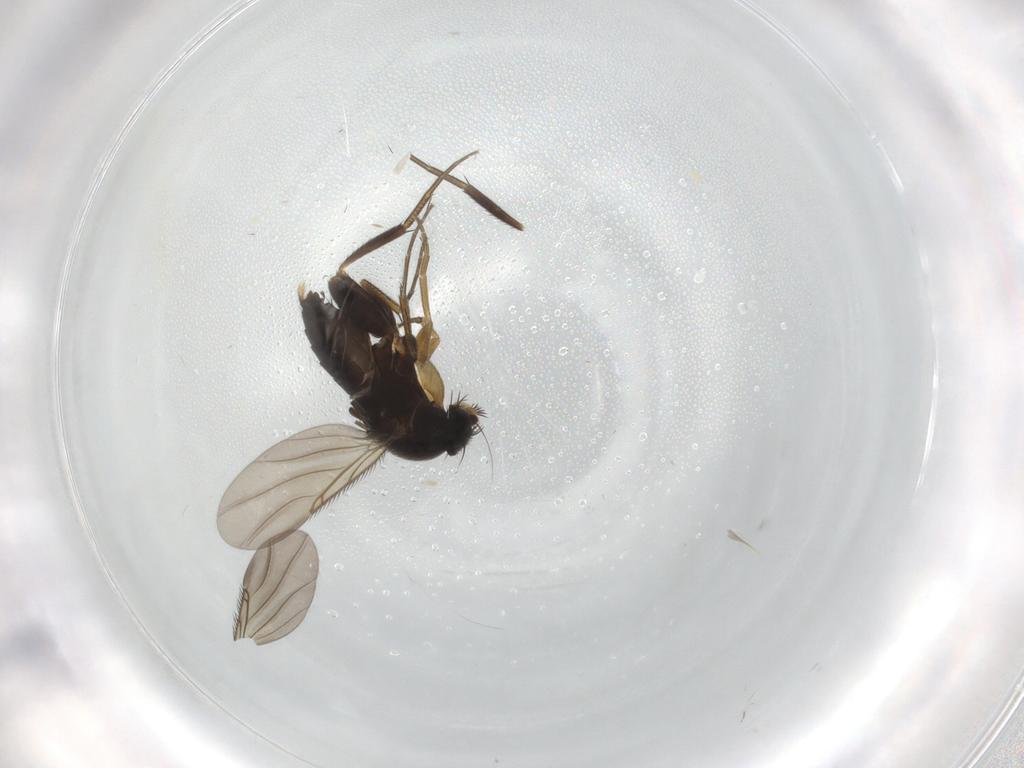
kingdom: Animalia
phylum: Arthropoda
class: Insecta
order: Diptera
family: Phoridae
